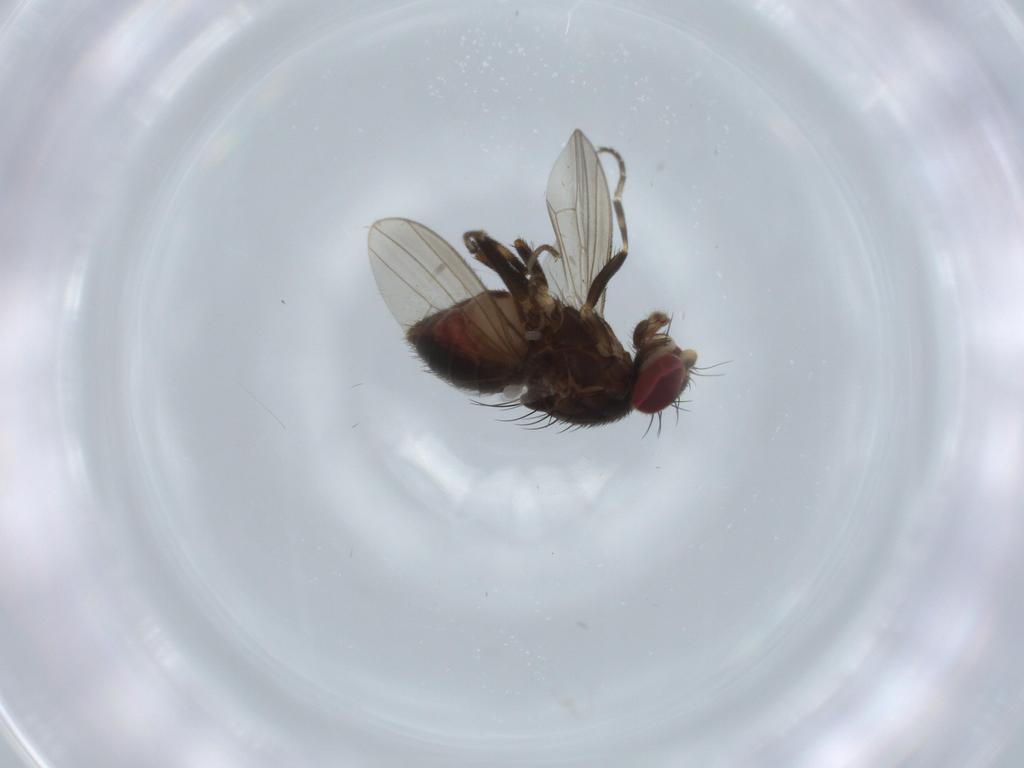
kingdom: Animalia
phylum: Arthropoda
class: Insecta
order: Diptera
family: Heleomyzidae
